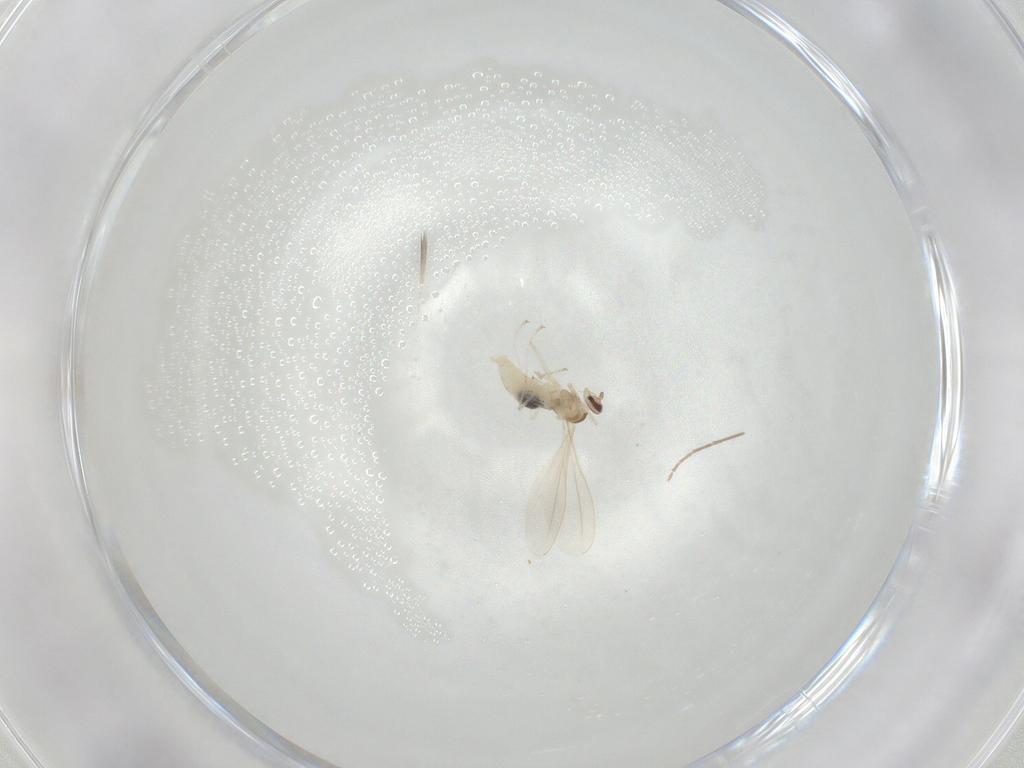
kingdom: Animalia
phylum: Arthropoda
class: Insecta
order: Diptera
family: Cecidomyiidae
